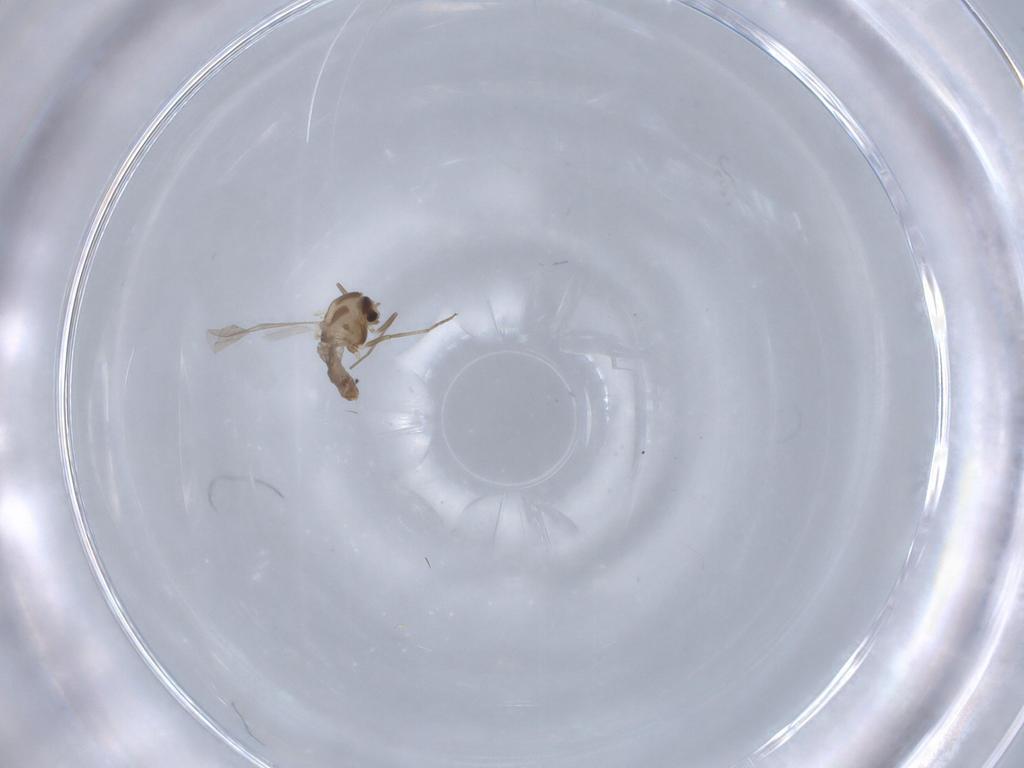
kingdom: Animalia
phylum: Arthropoda
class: Insecta
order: Diptera
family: Chironomidae
